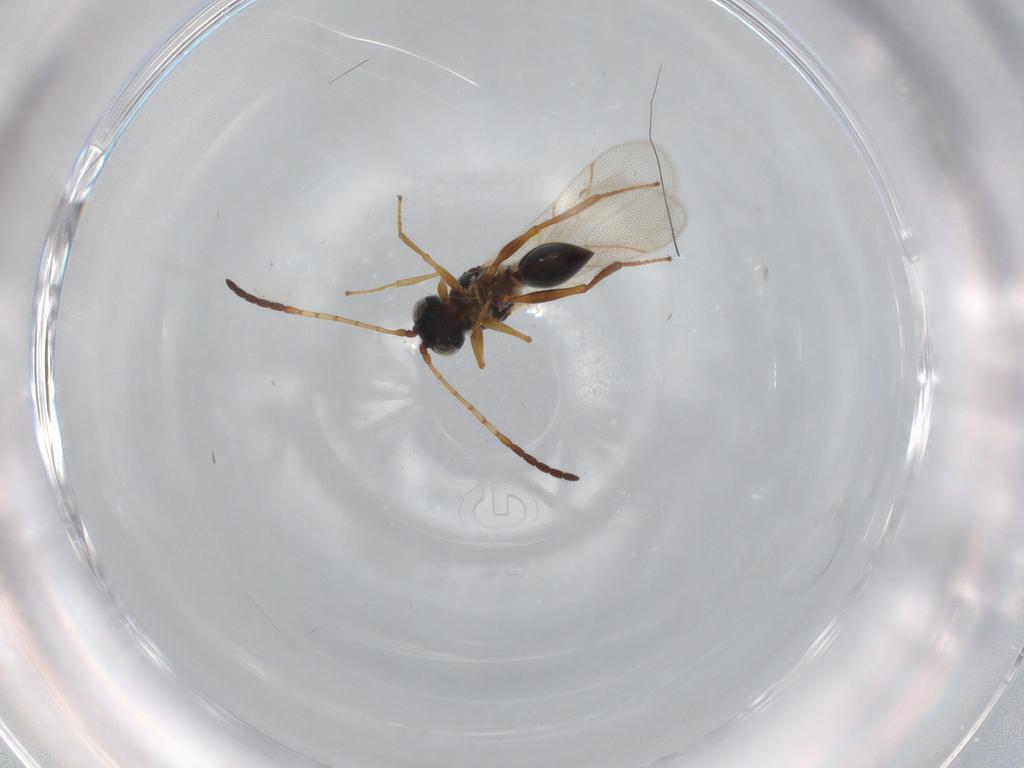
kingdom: Animalia
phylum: Arthropoda
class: Insecta
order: Hymenoptera
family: Figitidae
